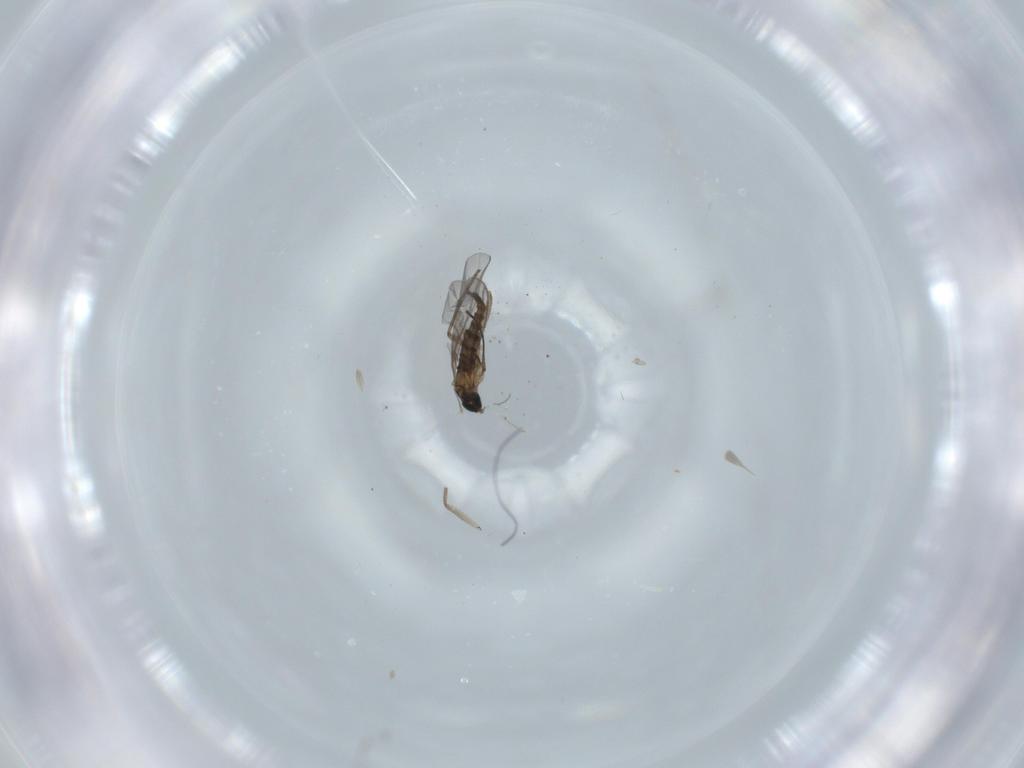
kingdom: Animalia
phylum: Arthropoda
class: Insecta
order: Diptera
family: Sciaridae
